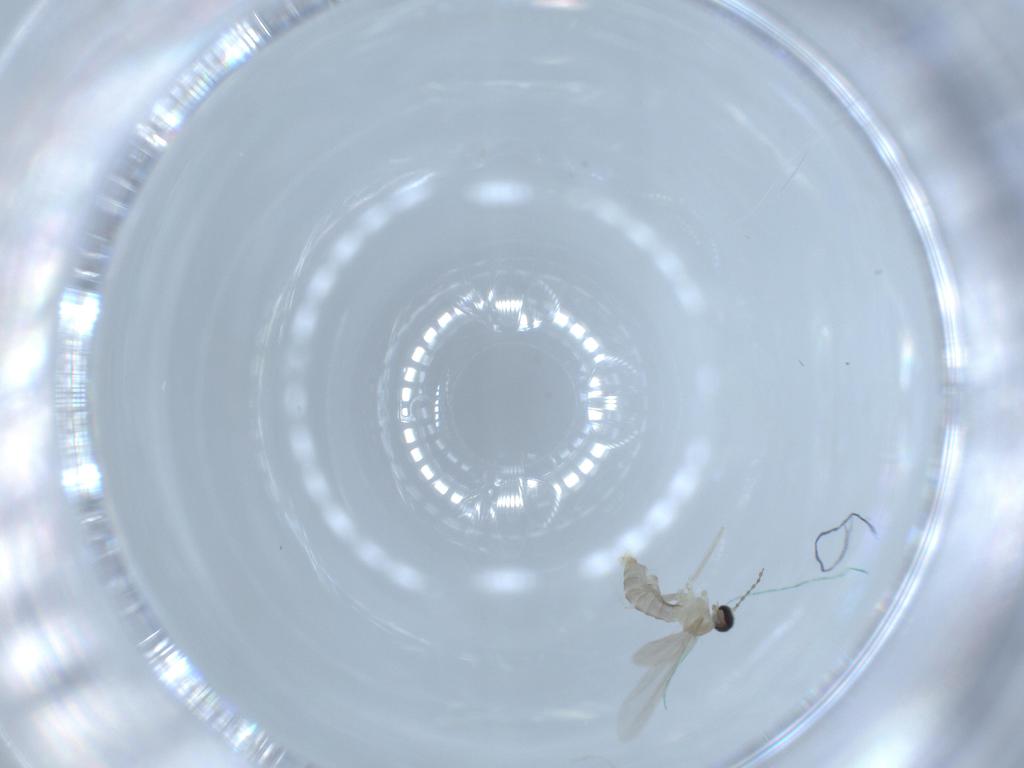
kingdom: Animalia
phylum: Arthropoda
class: Insecta
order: Diptera
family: Cecidomyiidae
